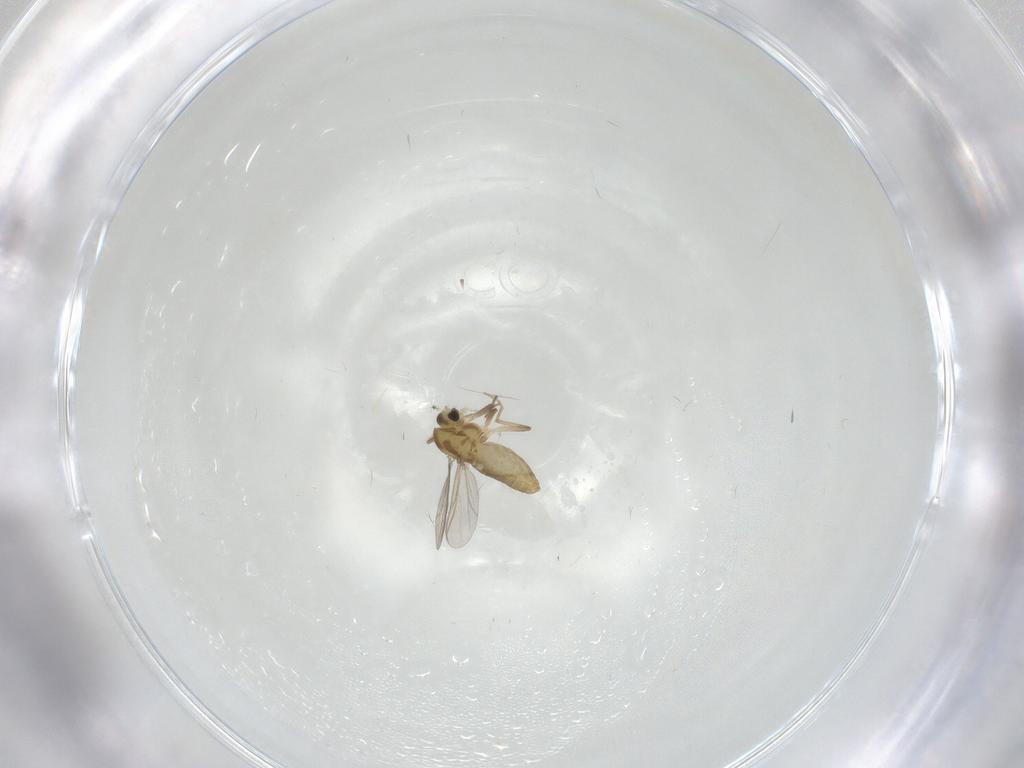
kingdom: Animalia
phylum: Arthropoda
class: Insecta
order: Diptera
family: Chironomidae
